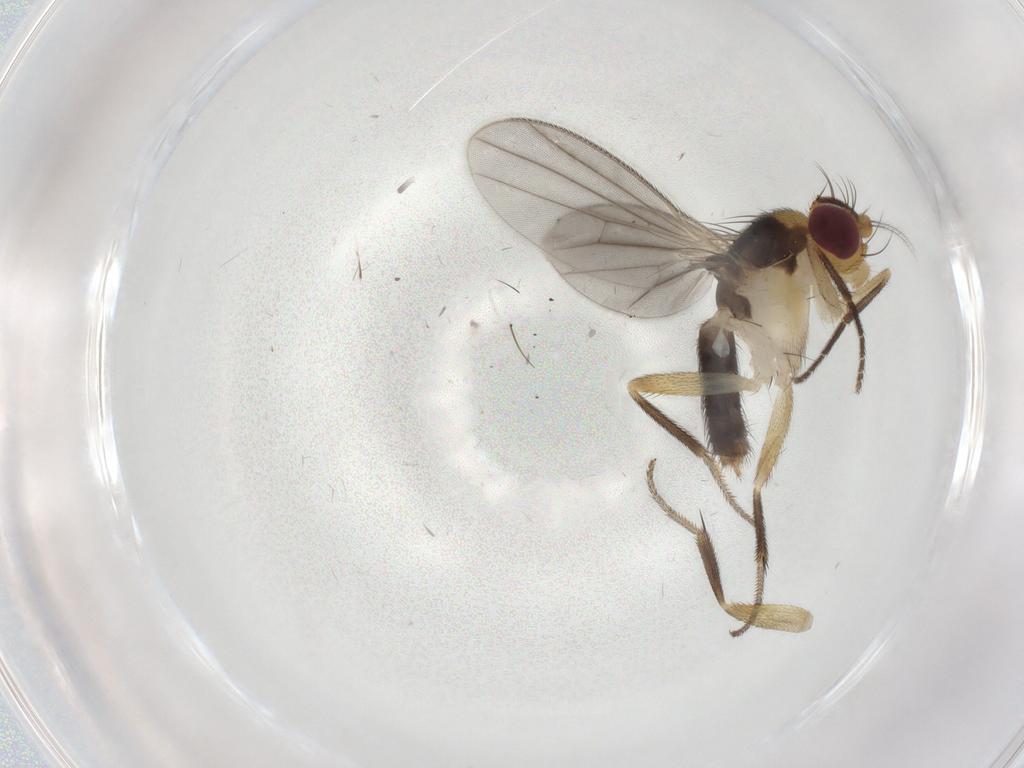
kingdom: Animalia
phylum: Arthropoda
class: Insecta
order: Diptera
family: Clusiidae
